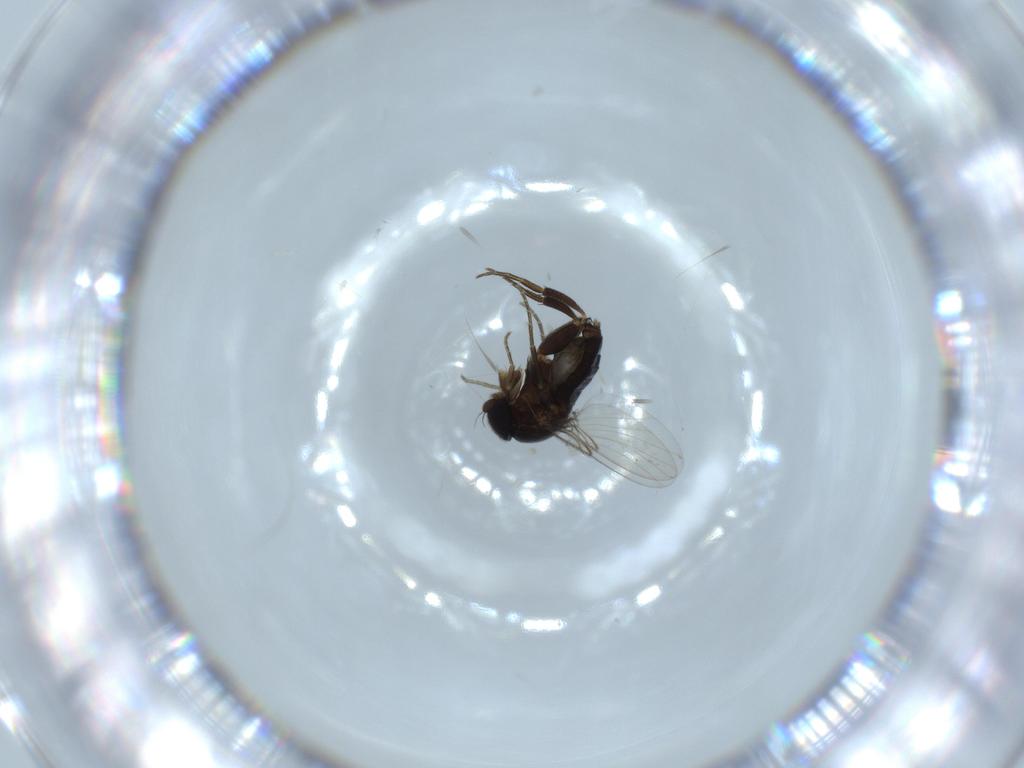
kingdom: Animalia
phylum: Arthropoda
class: Insecta
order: Diptera
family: Phoridae
